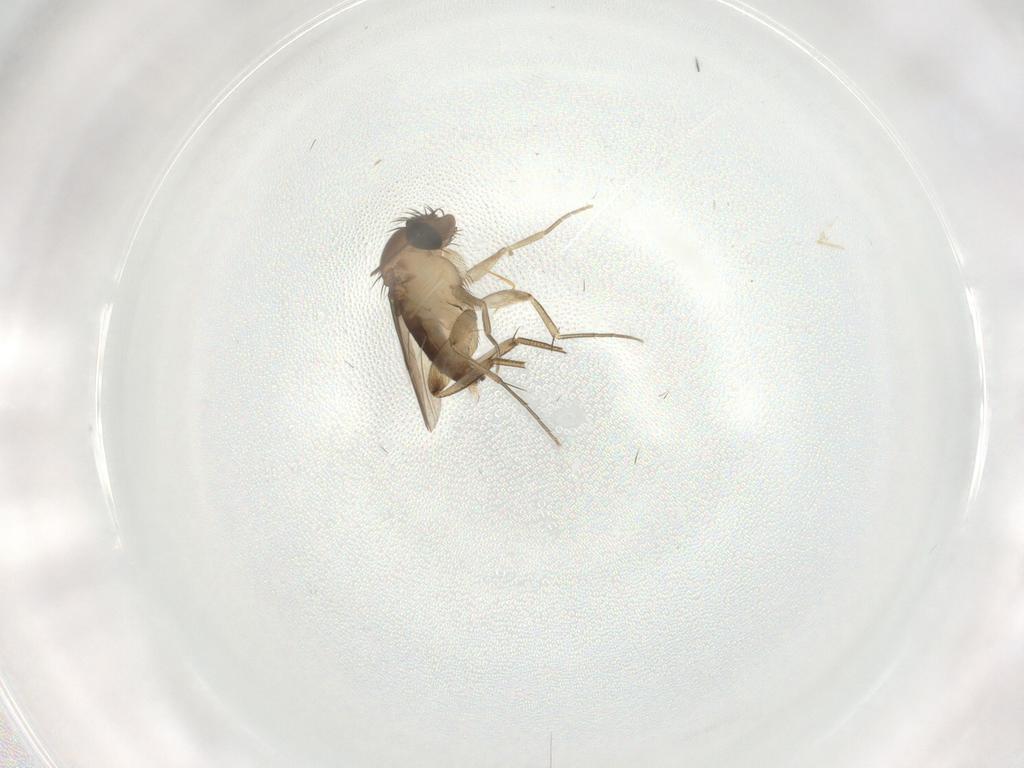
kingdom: Animalia
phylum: Arthropoda
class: Insecta
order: Diptera
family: Phoridae
